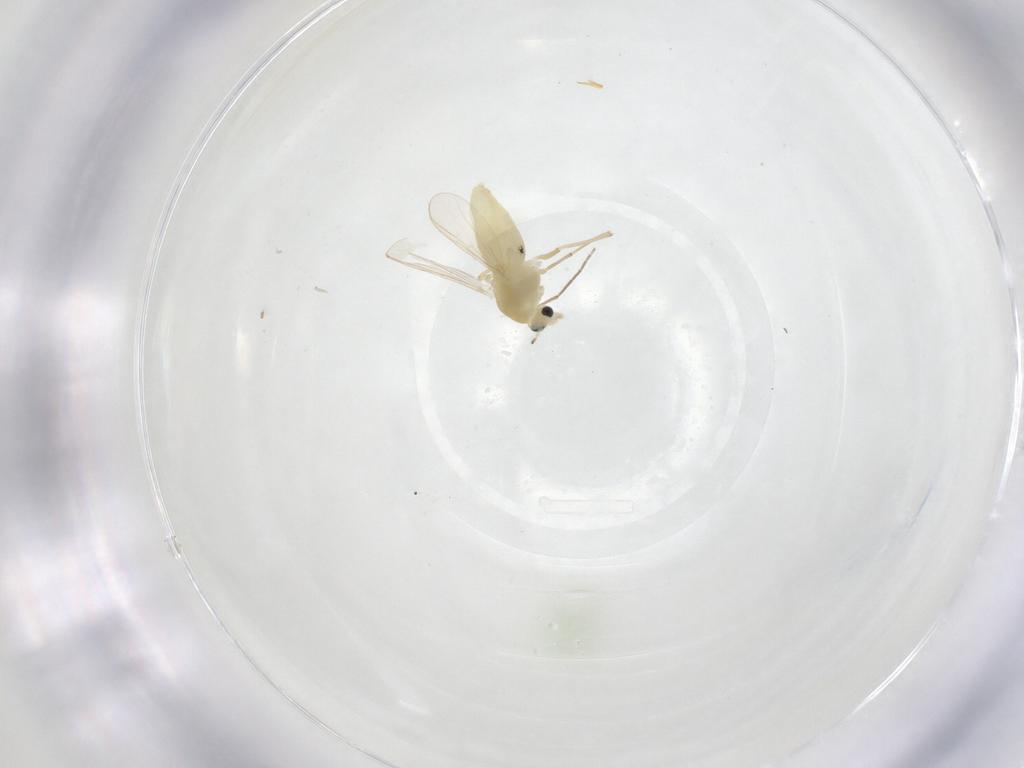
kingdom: Animalia
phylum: Arthropoda
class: Insecta
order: Diptera
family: Chironomidae
